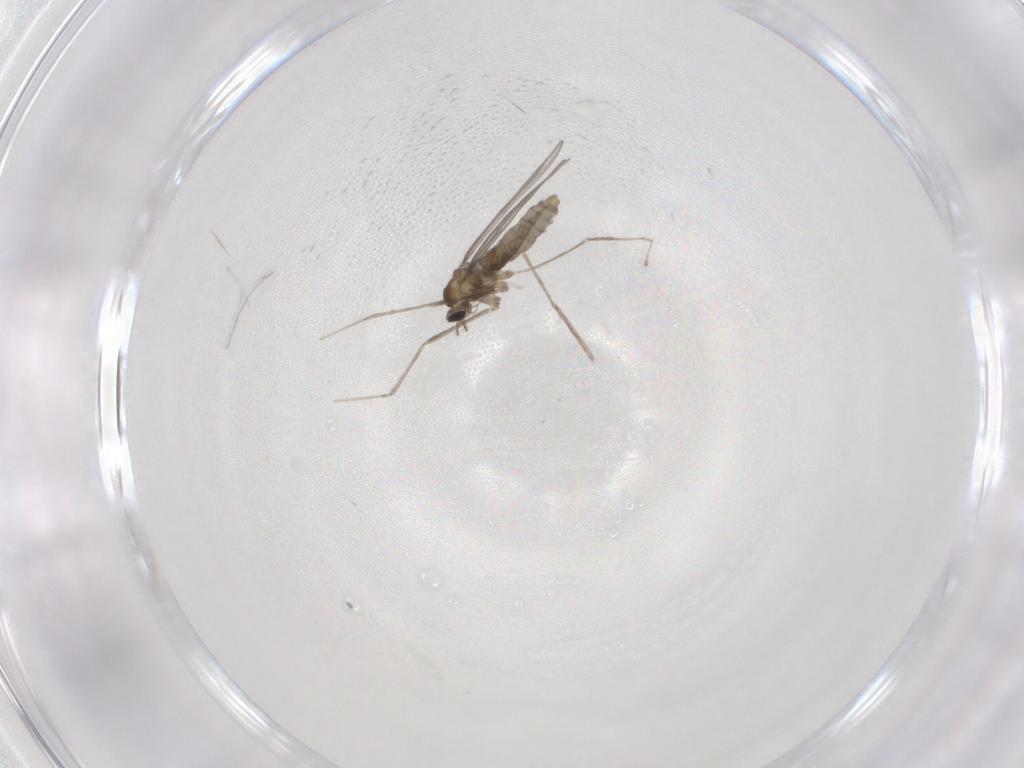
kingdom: Animalia
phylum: Arthropoda
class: Insecta
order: Diptera
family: Cecidomyiidae
